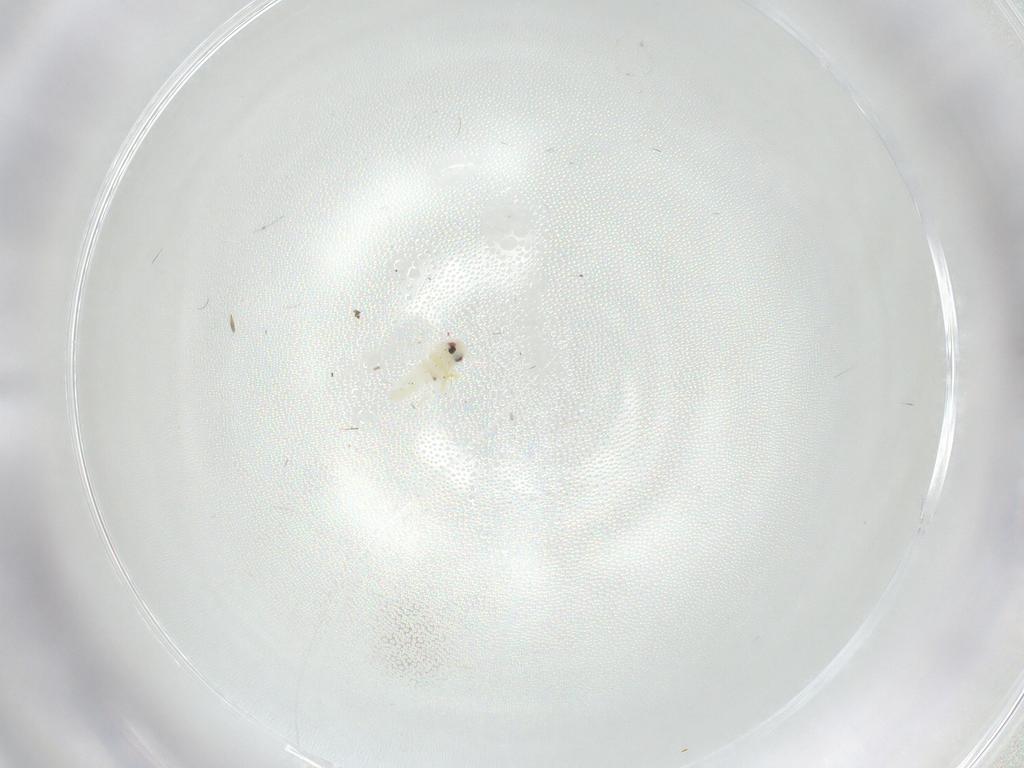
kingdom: Animalia
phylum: Arthropoda
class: Insecta
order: Hemiptera
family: Aleyrodidae
